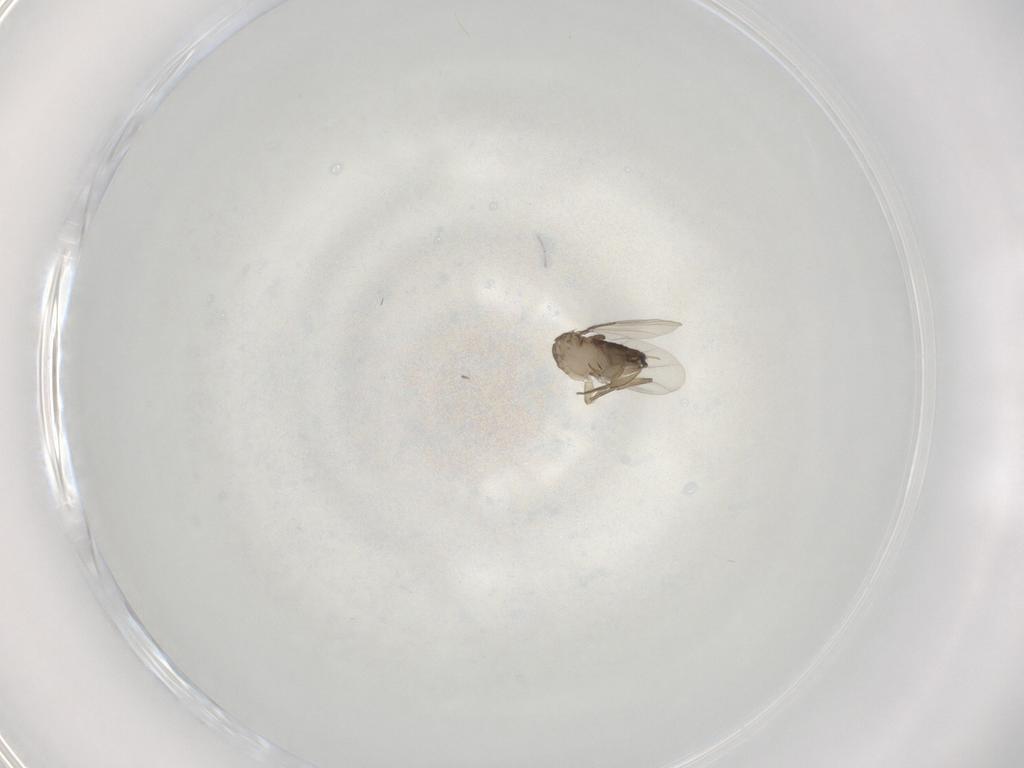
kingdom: Animalia
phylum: Arthropoda
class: Insecta
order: Diptera
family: Phoridae
